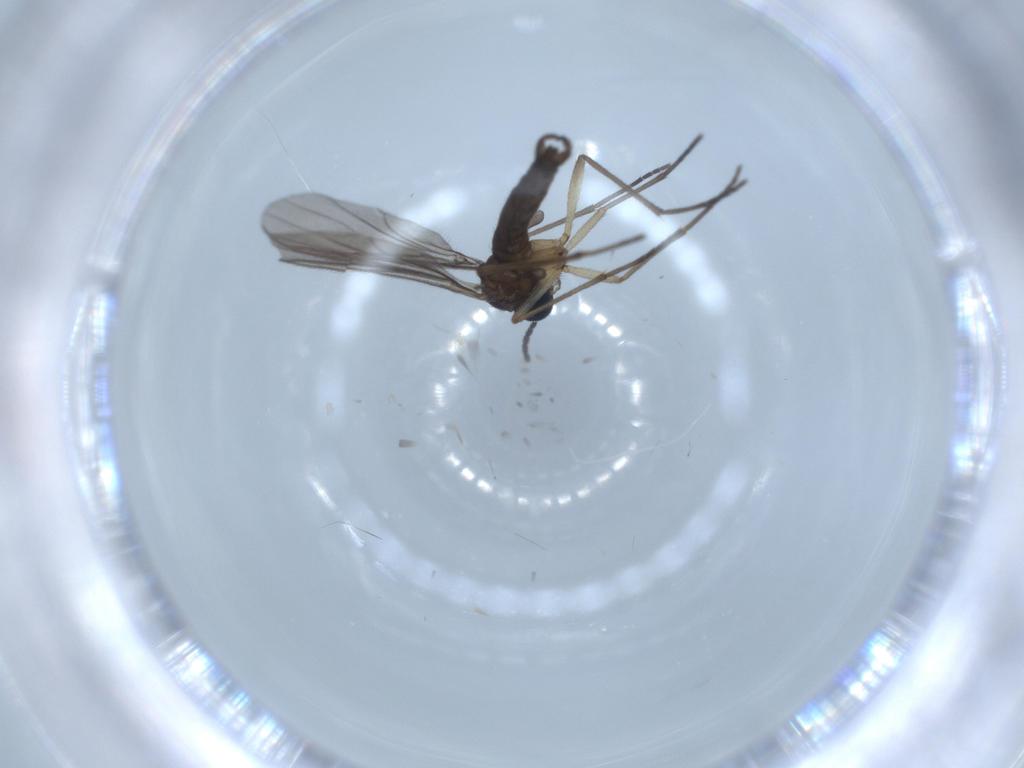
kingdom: Animalia
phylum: Arthropoda
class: Insecta
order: Diptera
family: Sciaridae
